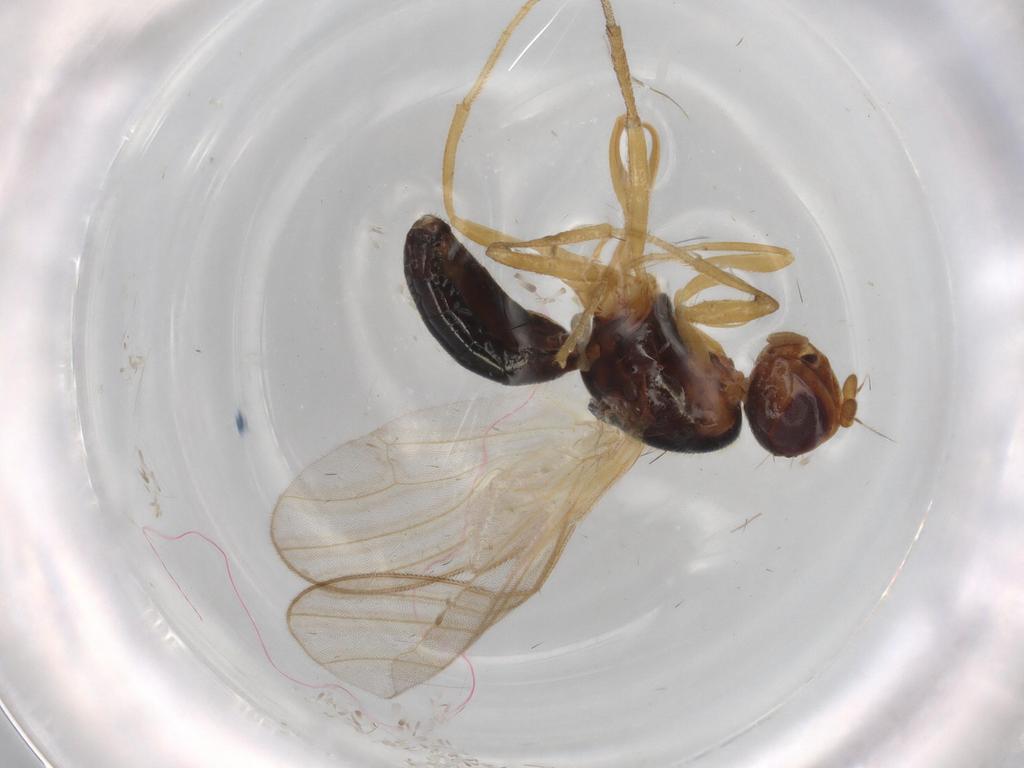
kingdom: Animalia
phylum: Arthropoda
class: Insecta
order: Diptera
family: Psilidae
